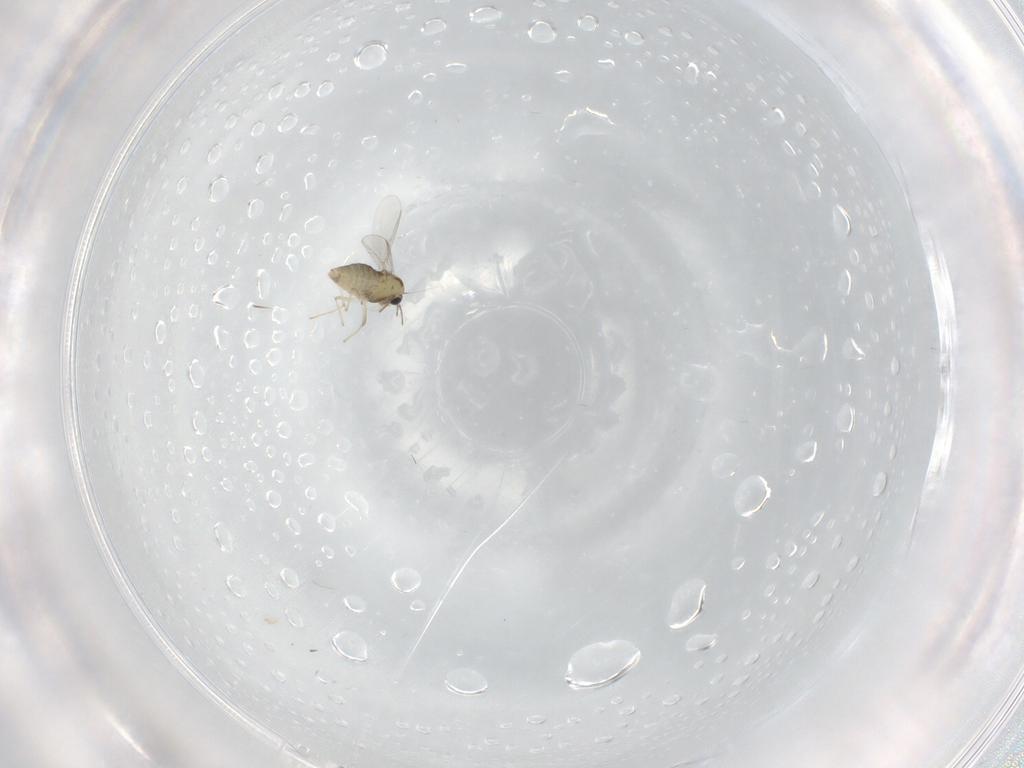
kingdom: Animalia
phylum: Arthropoda
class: Insecta
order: Diptera
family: Chironomidae
